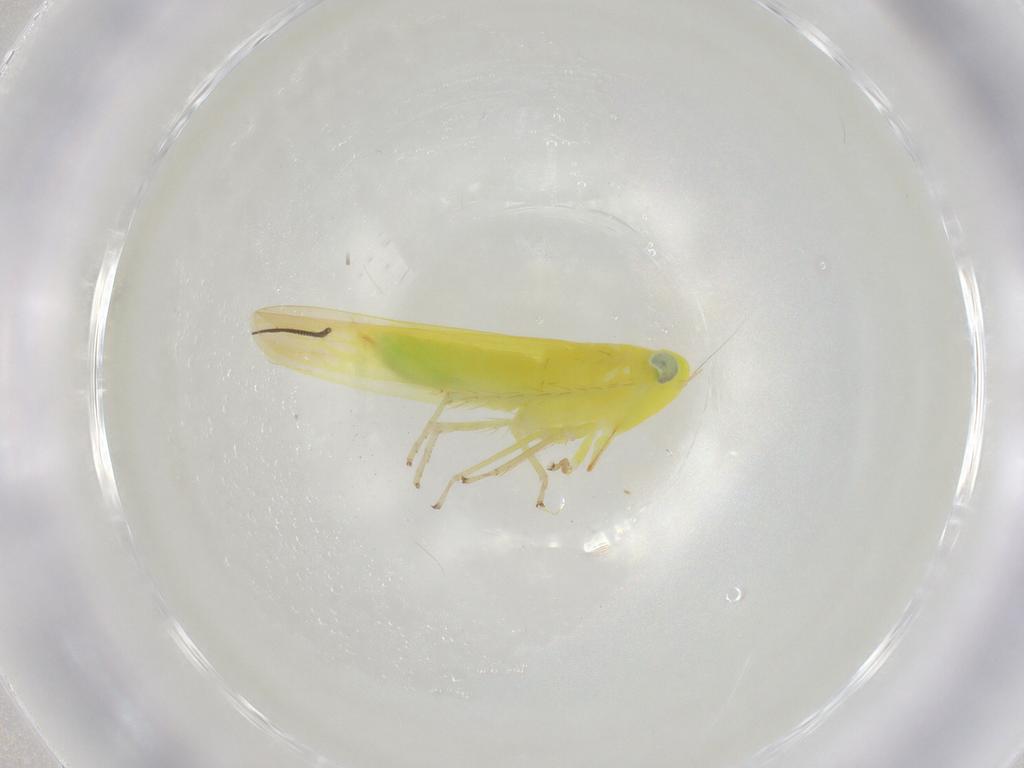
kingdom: Animalia
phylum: Arthropoda
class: Insecta
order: Hemiptera
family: Cicadellidae
